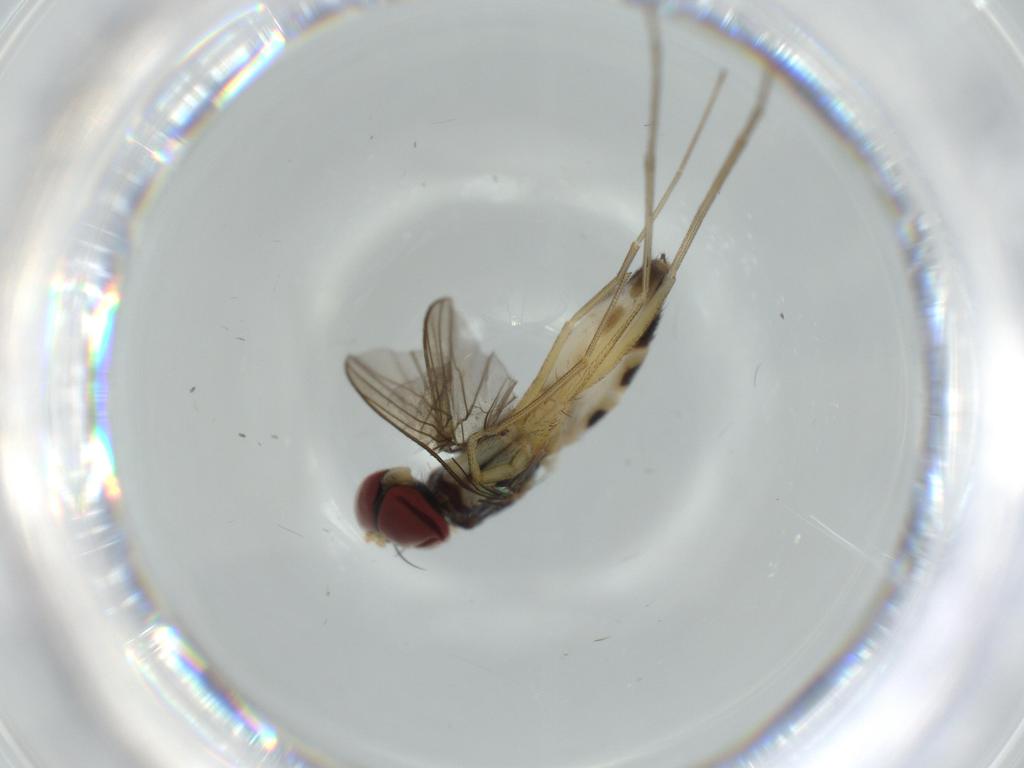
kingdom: Animalia
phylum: Arthropoda
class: Insecta
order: Diptera
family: Dolichopodidae
